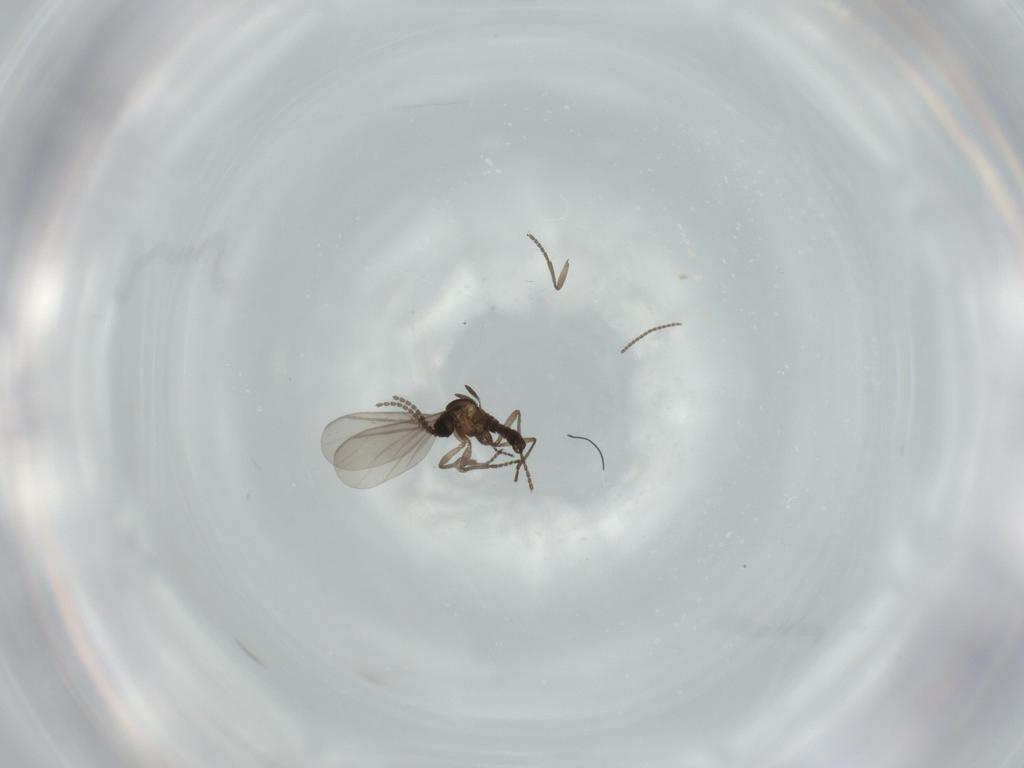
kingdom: Animalia
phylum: Arthropoda
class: Insecta
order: Diptera
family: Sciaridae
